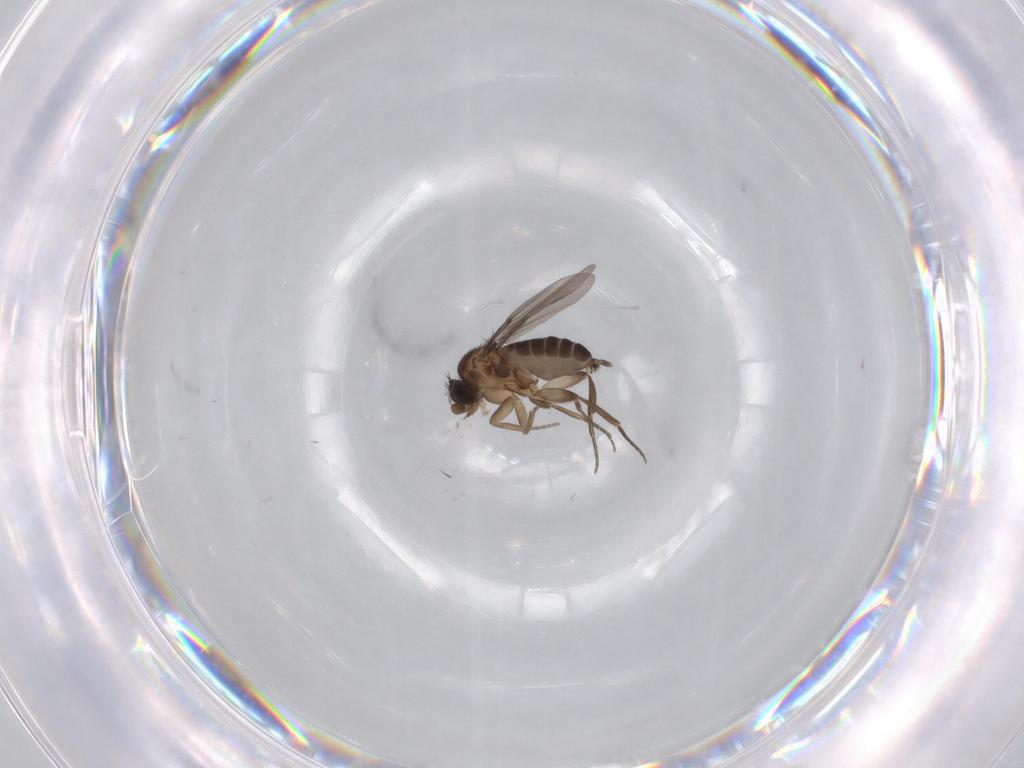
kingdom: Animalia
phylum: Arthropoda
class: Insecta
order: Diptera
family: Phoridae
